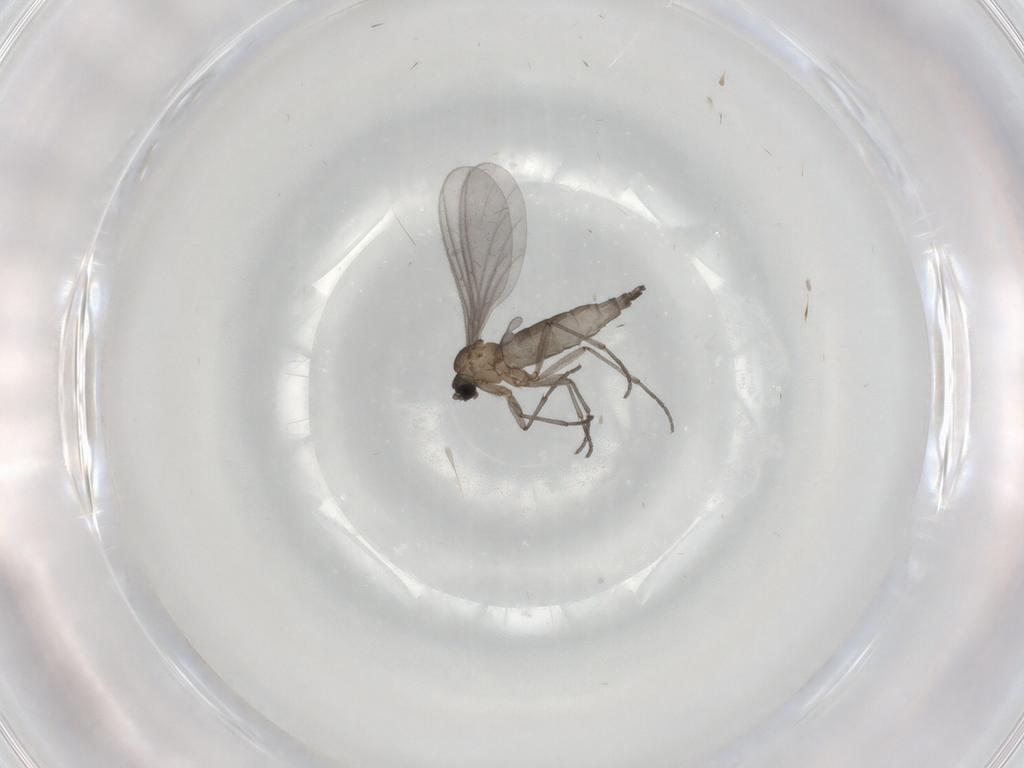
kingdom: Animalia
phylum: Arthropoda
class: Insecta
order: Diptera
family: Sciaridae
